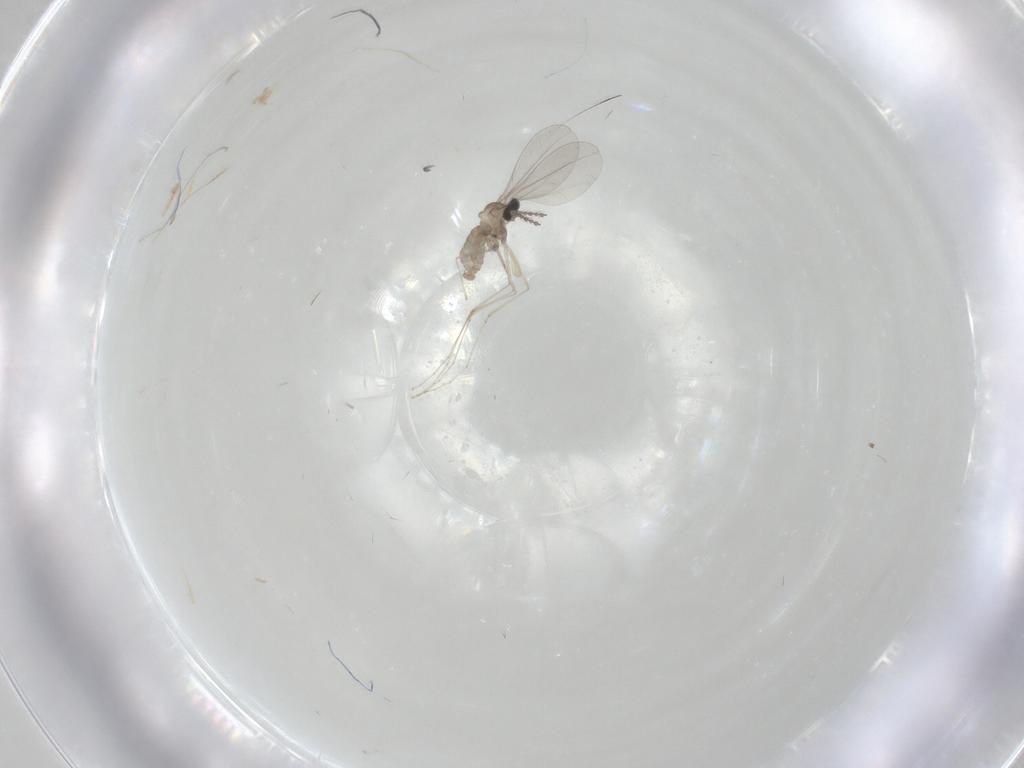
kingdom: Animalia
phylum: Arthropoda
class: Insecta
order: Diptera
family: Cecidomyiidae
